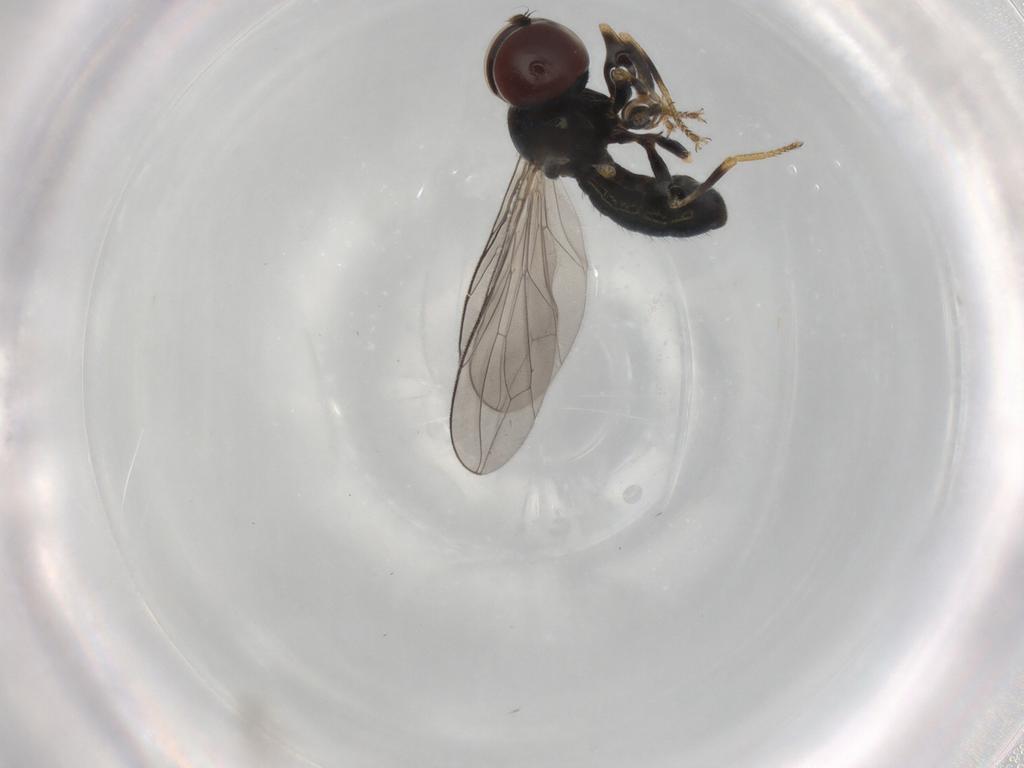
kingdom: Animalia
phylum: Arthropoda
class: Insecta
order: Diptera
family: Pipunculidae
